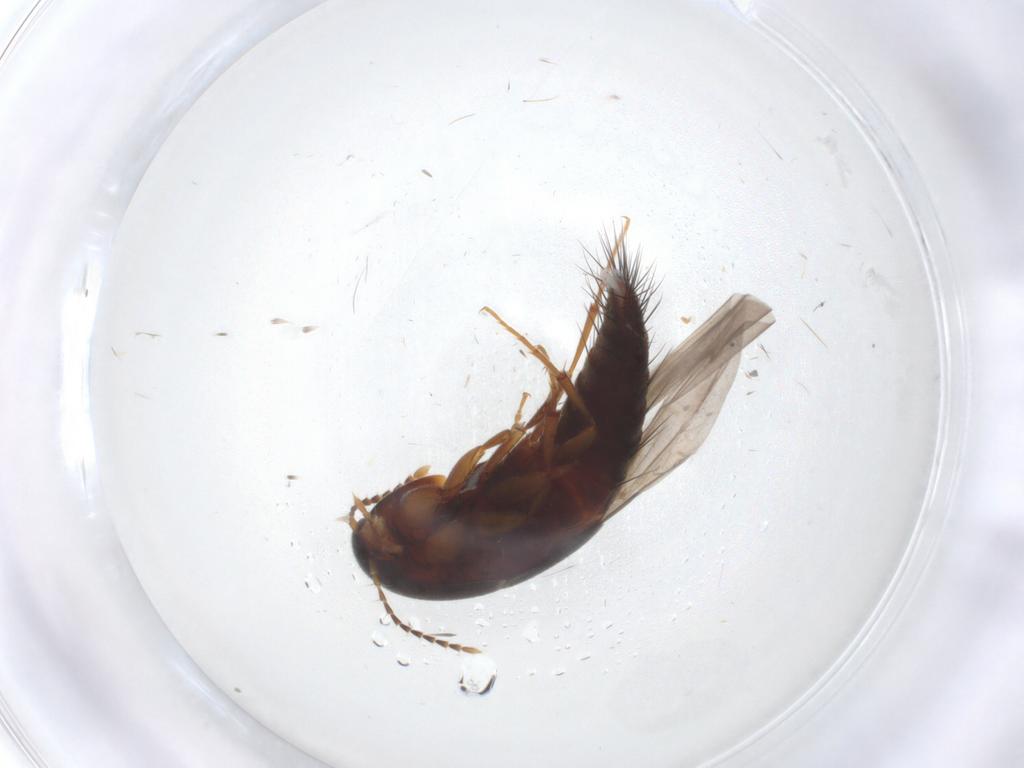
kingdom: Animalia
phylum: Arthropoda
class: Insecta
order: Coleoptera
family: Staphylinidae
